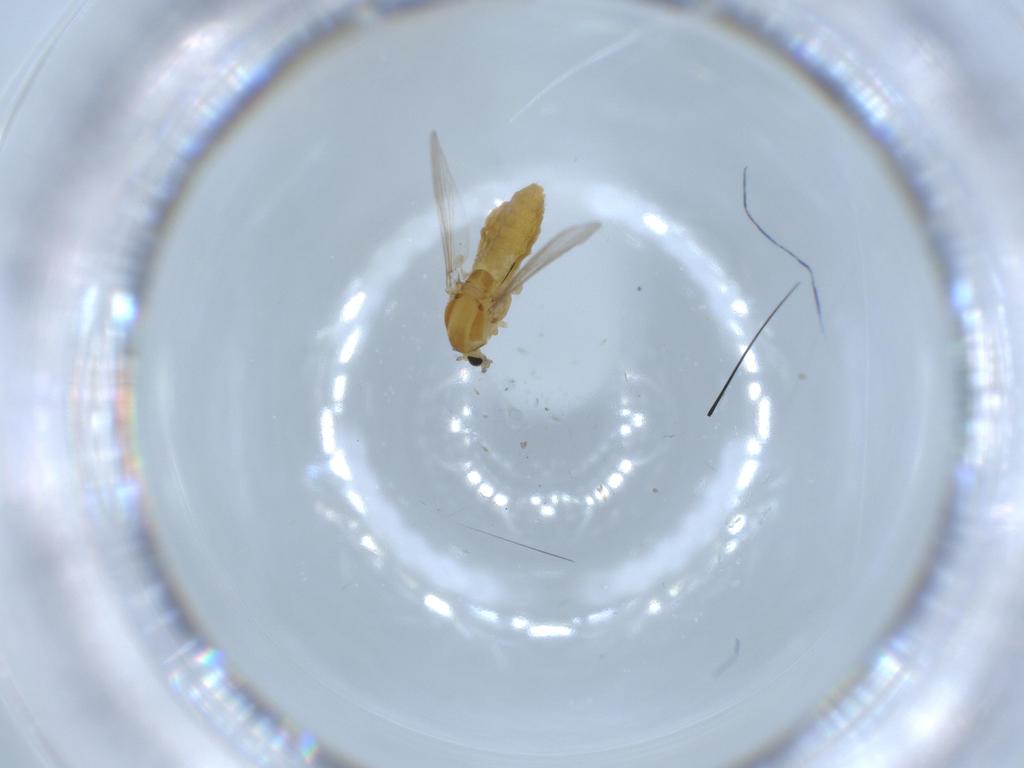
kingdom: Animalia
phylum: Arthropoda
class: Insecta
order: Diptera
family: Chironomidae
